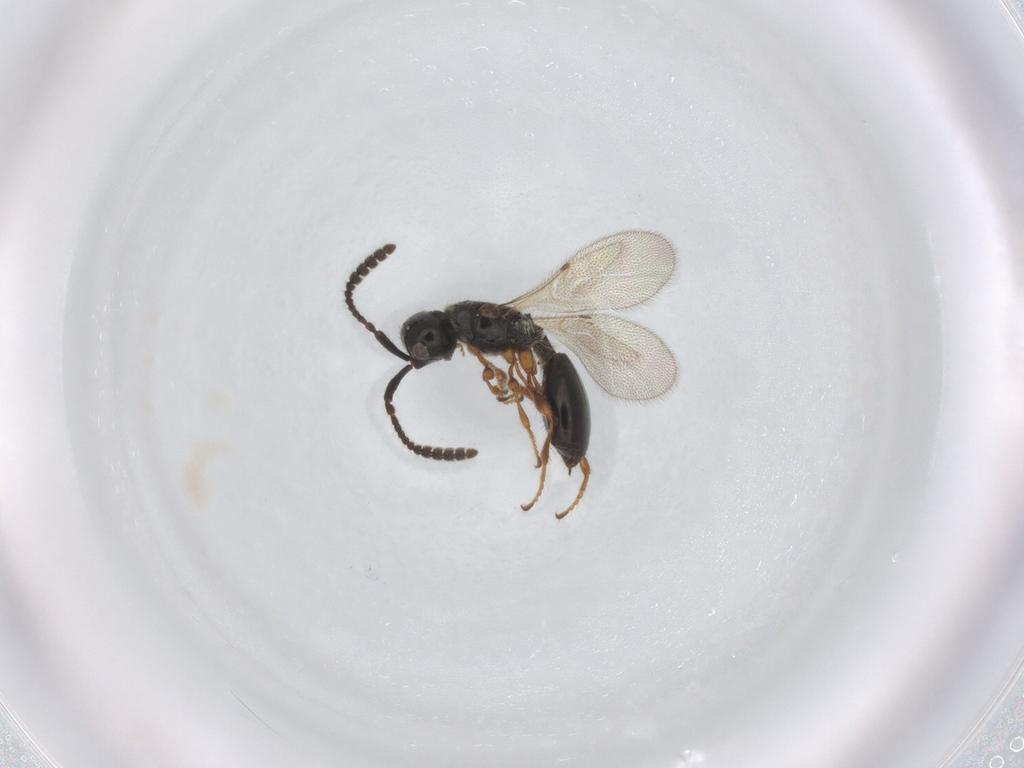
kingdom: Animalia
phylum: Arthropoda
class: Insecta
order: Hymenoptera
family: Diapriidae
